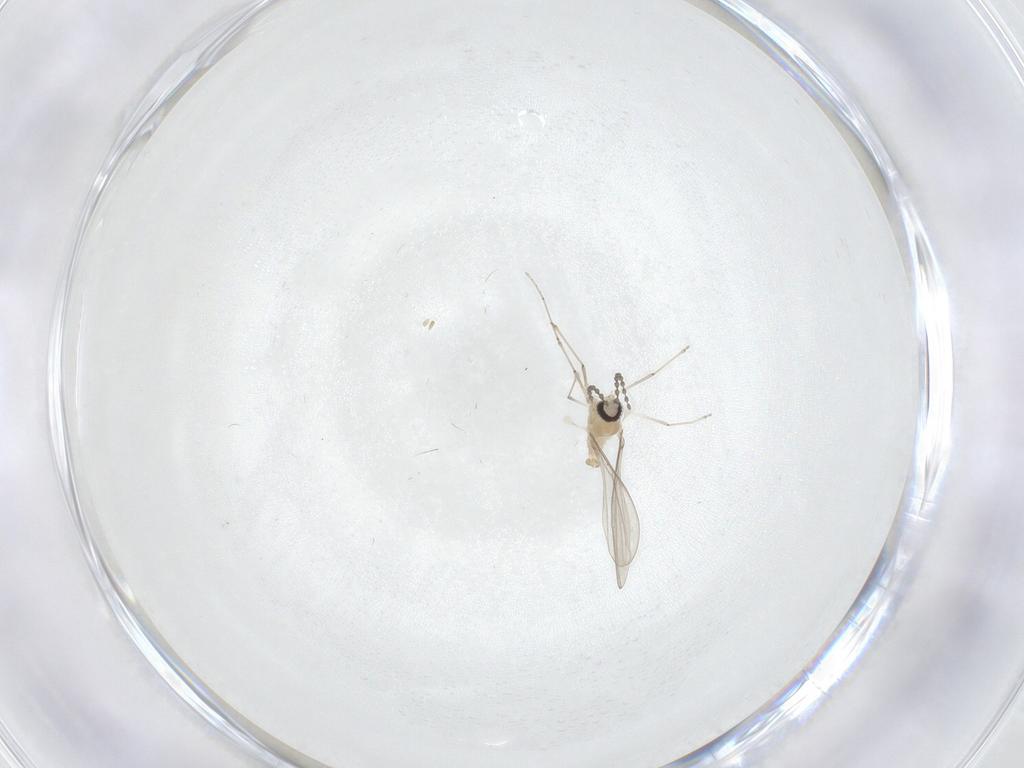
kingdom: Animalia
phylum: Arthropoda
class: Insecta
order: Diptera
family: Cecidomyiidae
